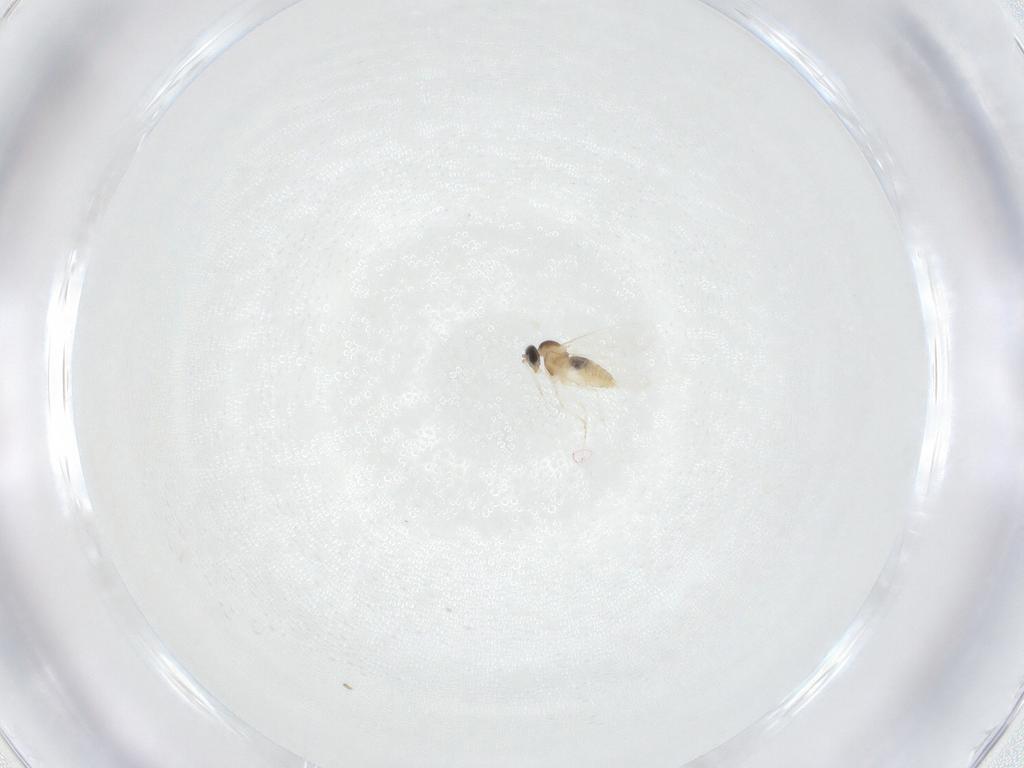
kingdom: Animalia
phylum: Arthropoda
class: Insecta
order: Diptera
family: Cecidomyiidae
